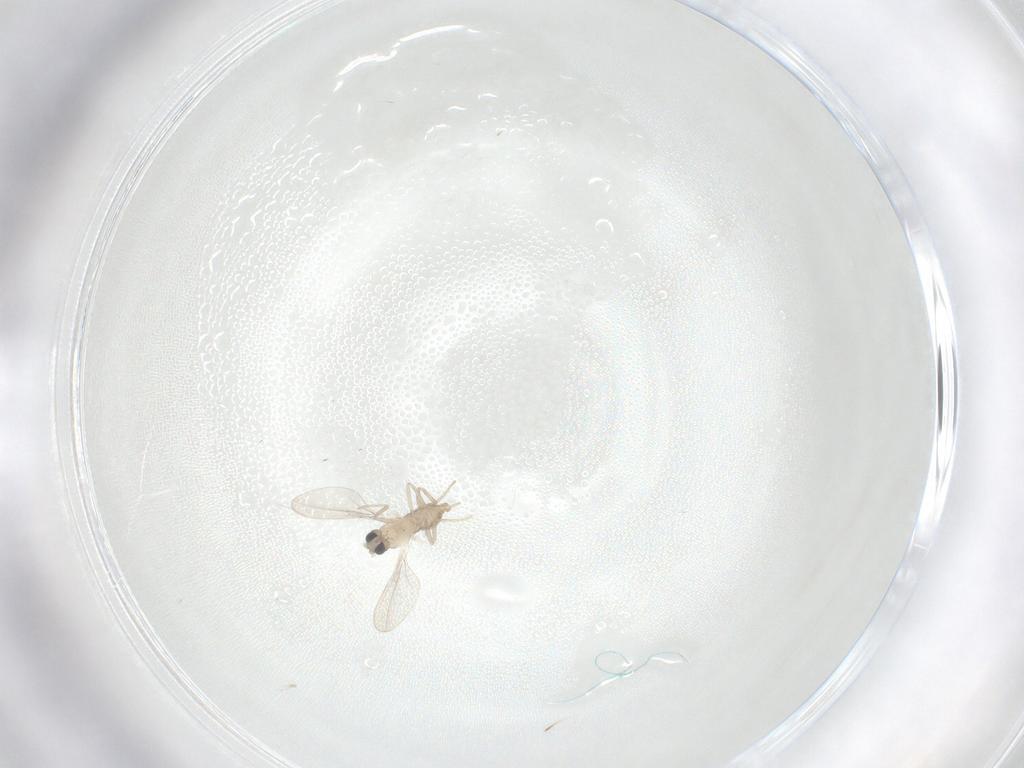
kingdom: Animalia
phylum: Arthropoda
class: Insecta
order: Diptera
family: Cecidomyiidae
